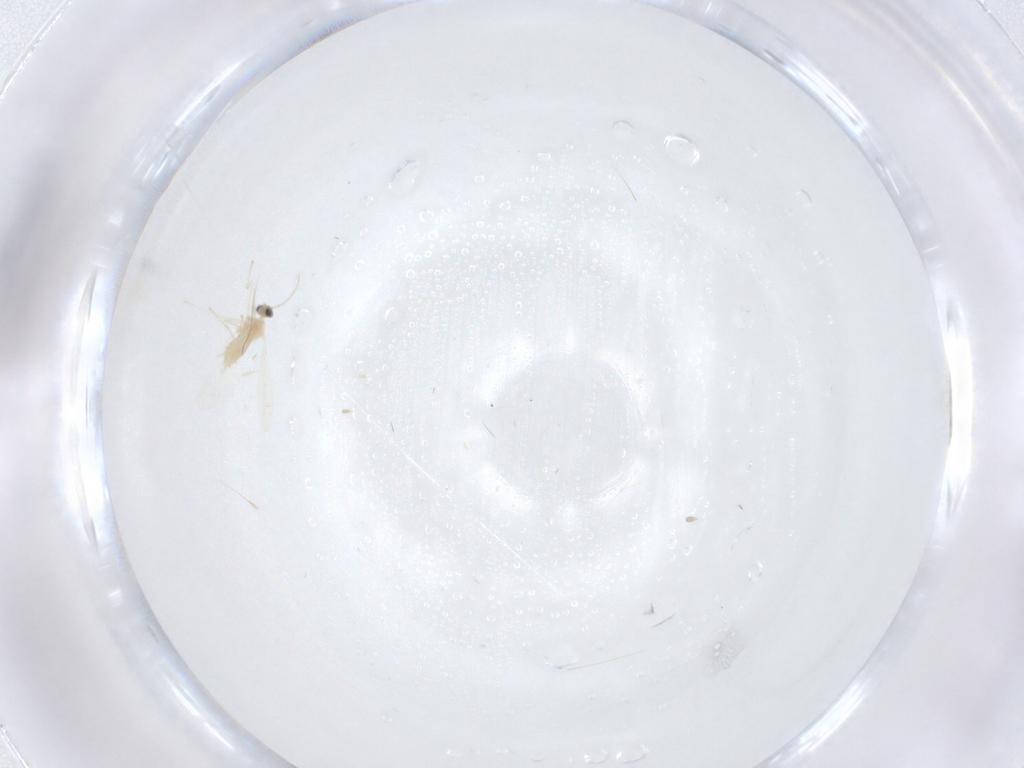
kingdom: Animalia
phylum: Arthropoda
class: Insecta
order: Diptera
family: Cecidomyiidae
